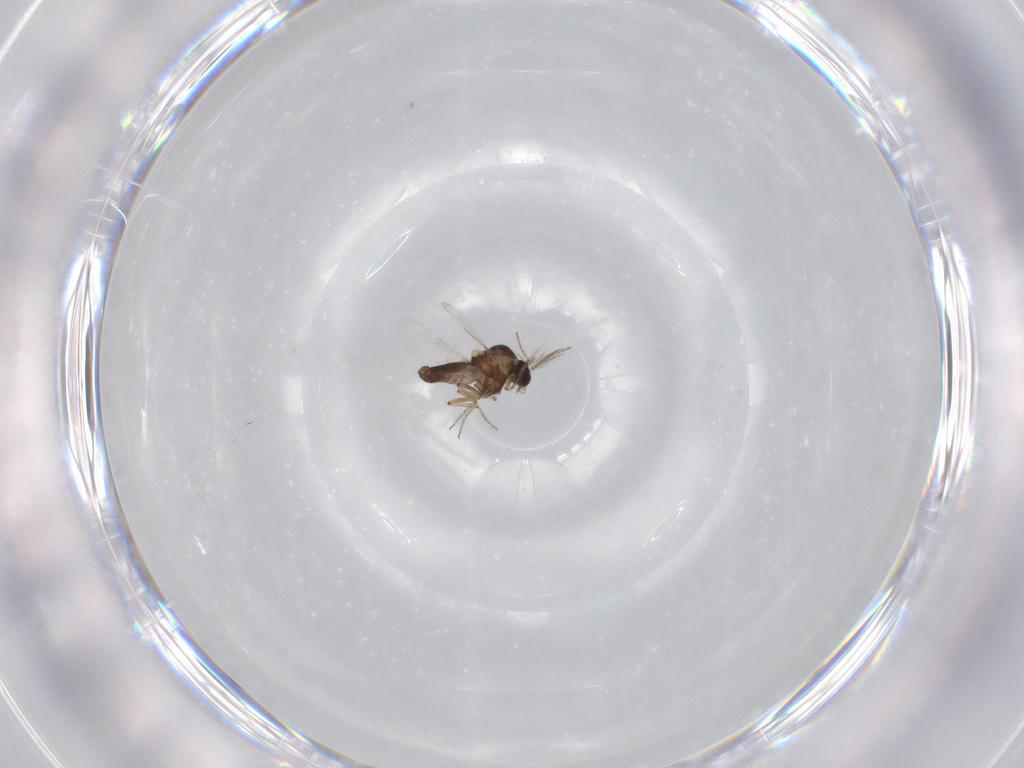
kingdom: Animalia
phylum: Arthropoda
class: Insecta
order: Diptera
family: Ceratopogonidae
